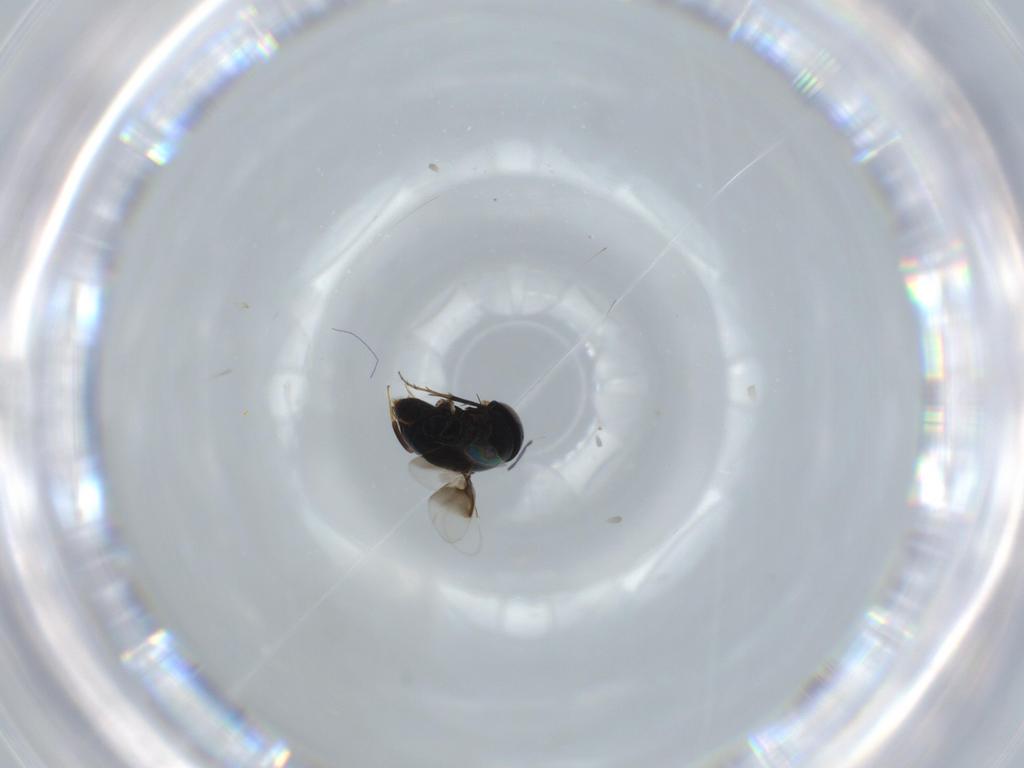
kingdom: Animalia
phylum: Arthropoda
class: Insecta
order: Hymenoptera
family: Signiphoridae
